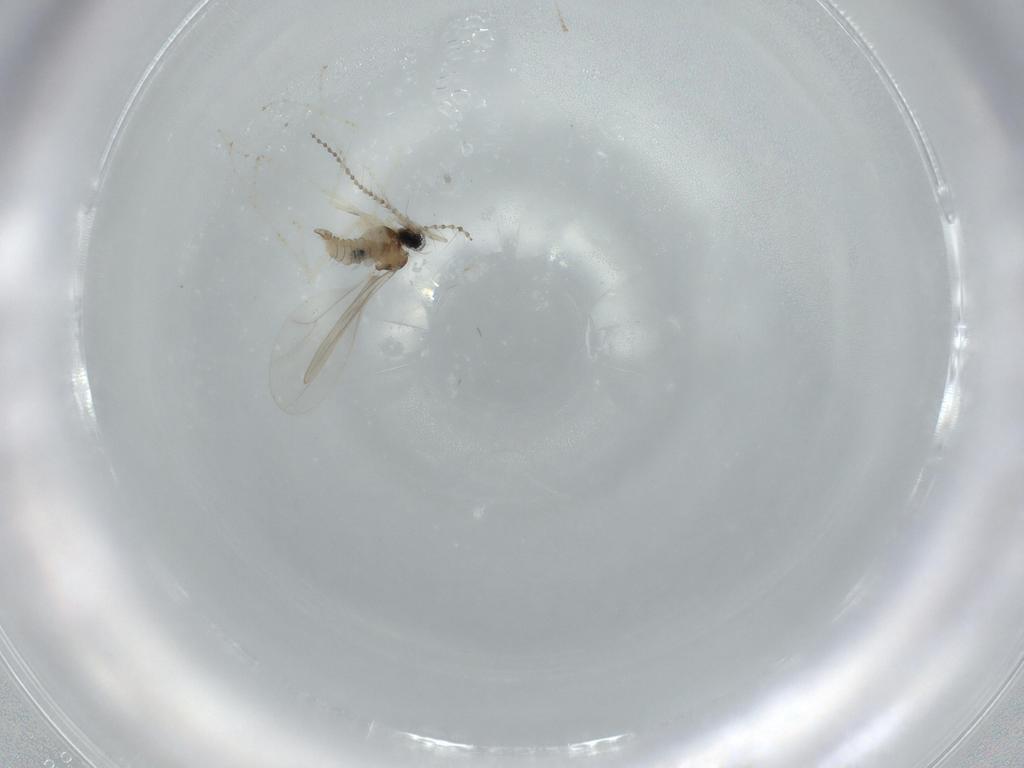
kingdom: Animalia
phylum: Arthropoda
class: Insecta
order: Diptera
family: Cecidomyiidae
